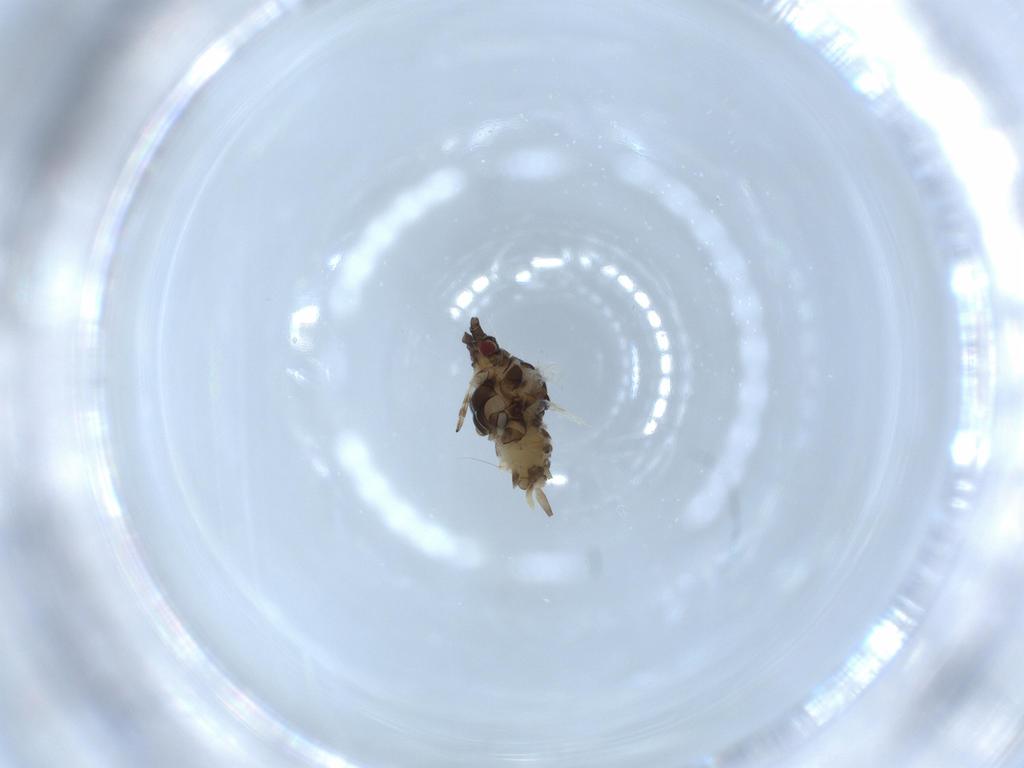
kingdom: Animalia
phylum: Arthropoda
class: Insecta
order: Hemiptera
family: Aphididae
